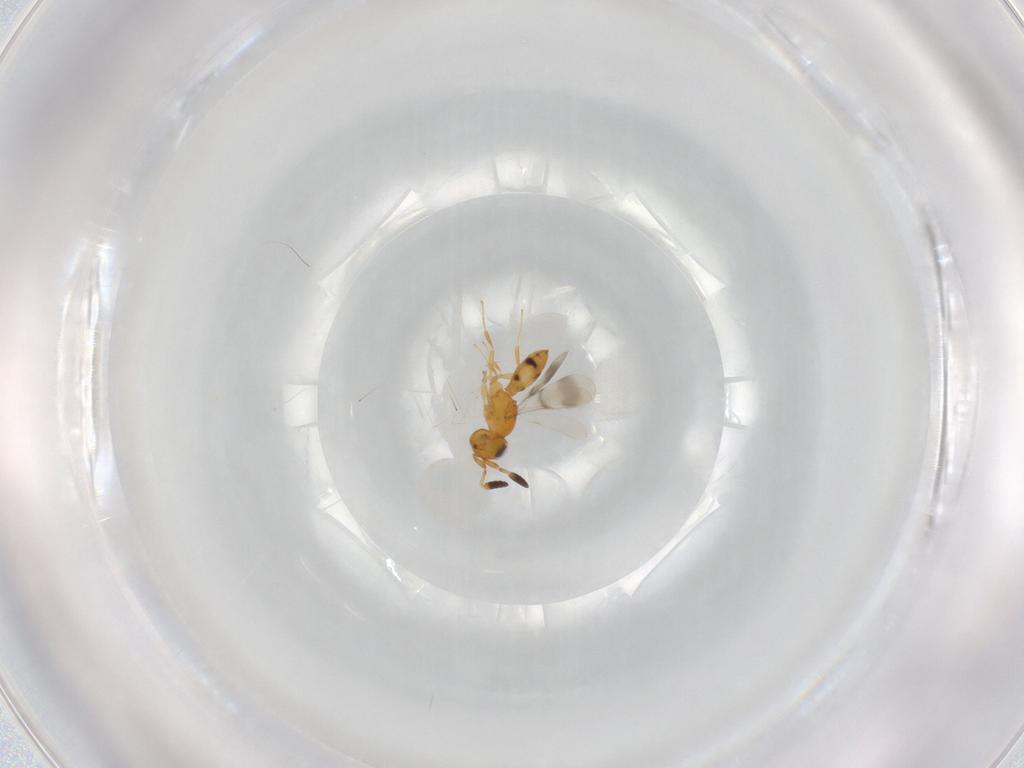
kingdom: Animalia
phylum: Arthropoda
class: Insecta
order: Hymenoptera
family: Scelionidae
